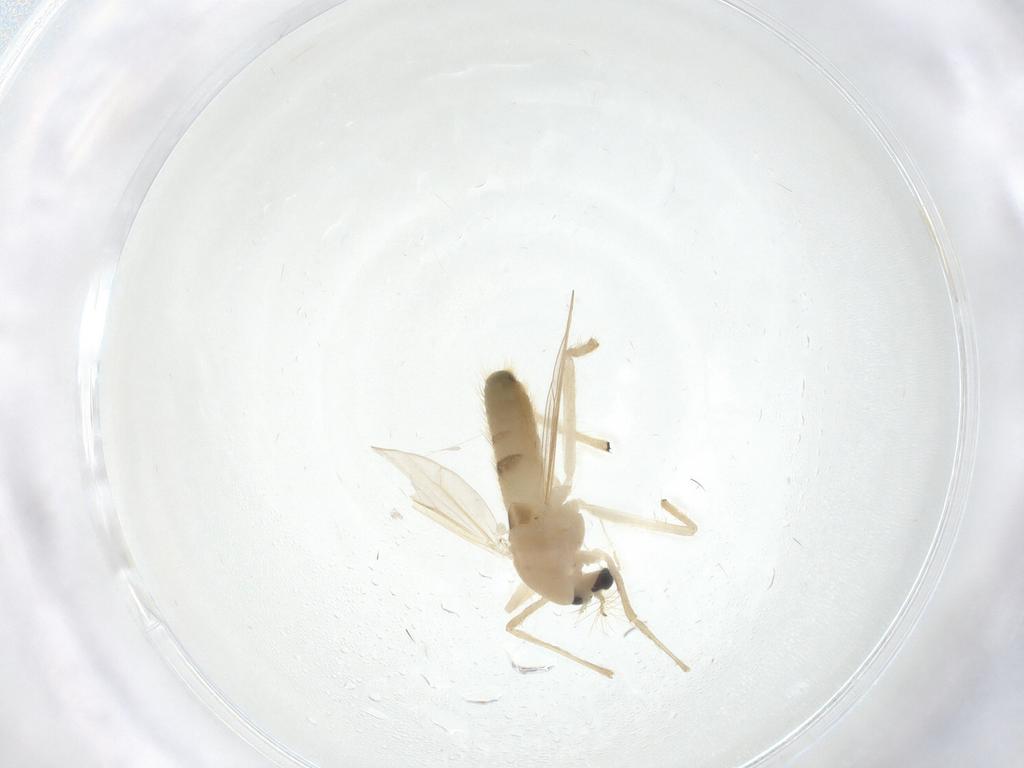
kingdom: Animalia
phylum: Arthropoda
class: Insecta
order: Diptera
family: Chironomidae
